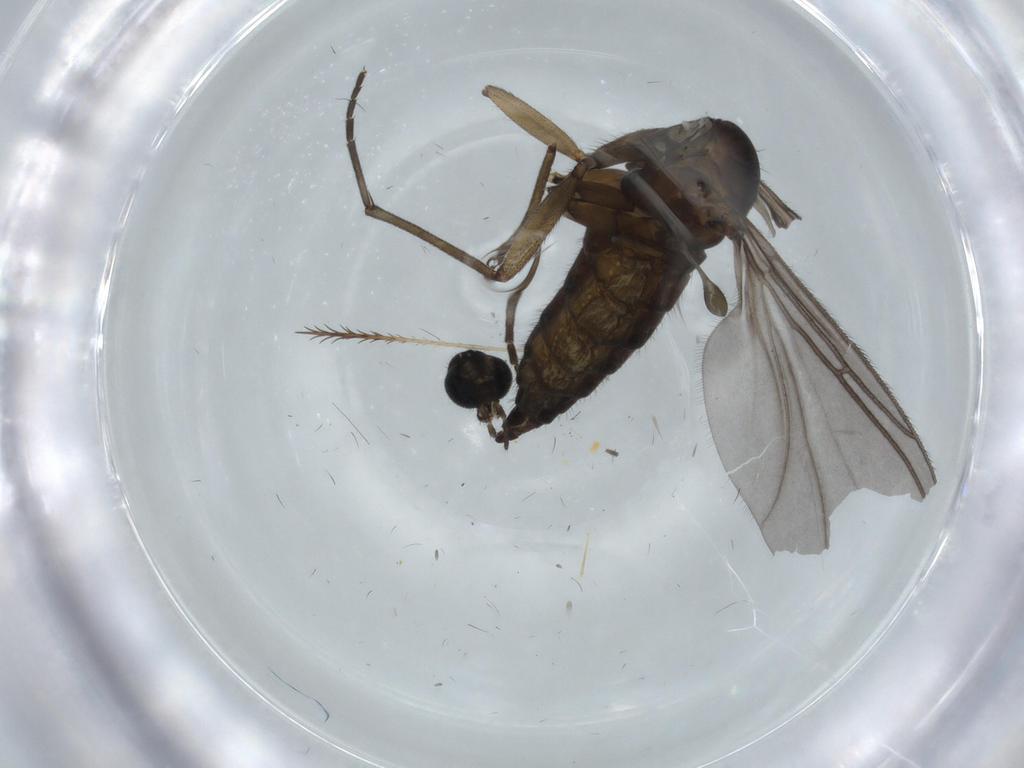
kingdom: Animalia
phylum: Arthropoda
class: Insecta
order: Diptera
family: Sciaridae
